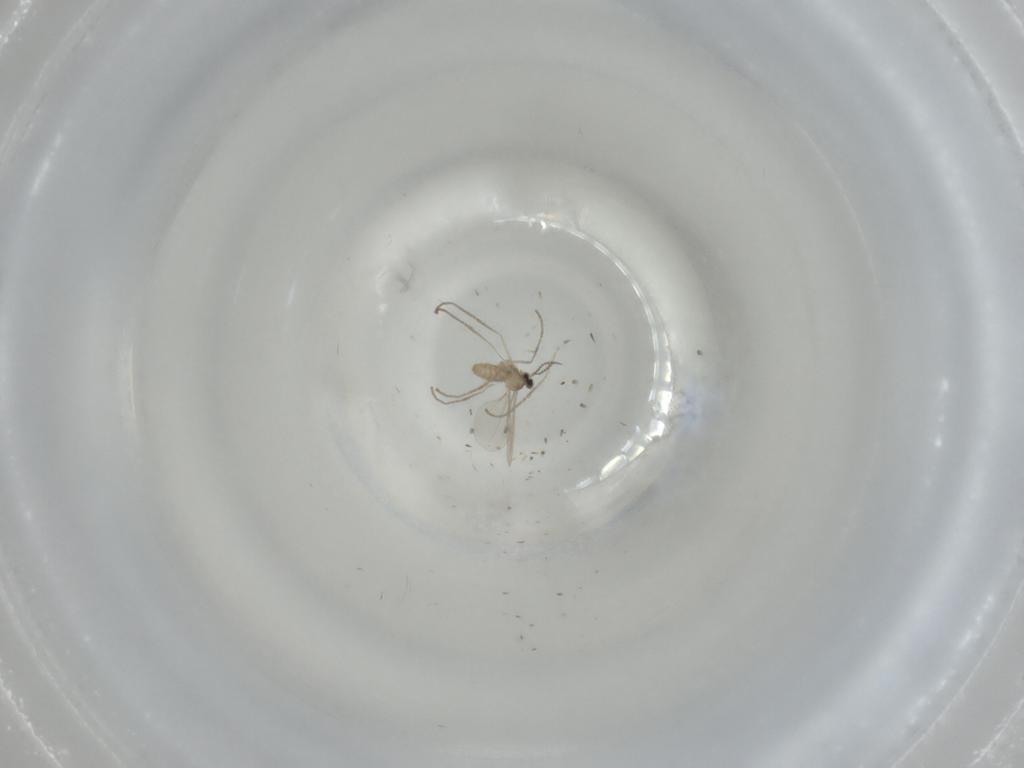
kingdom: Animalia
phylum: Arthropoda
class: Insecta
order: Diptera
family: Cecidomyiidae
